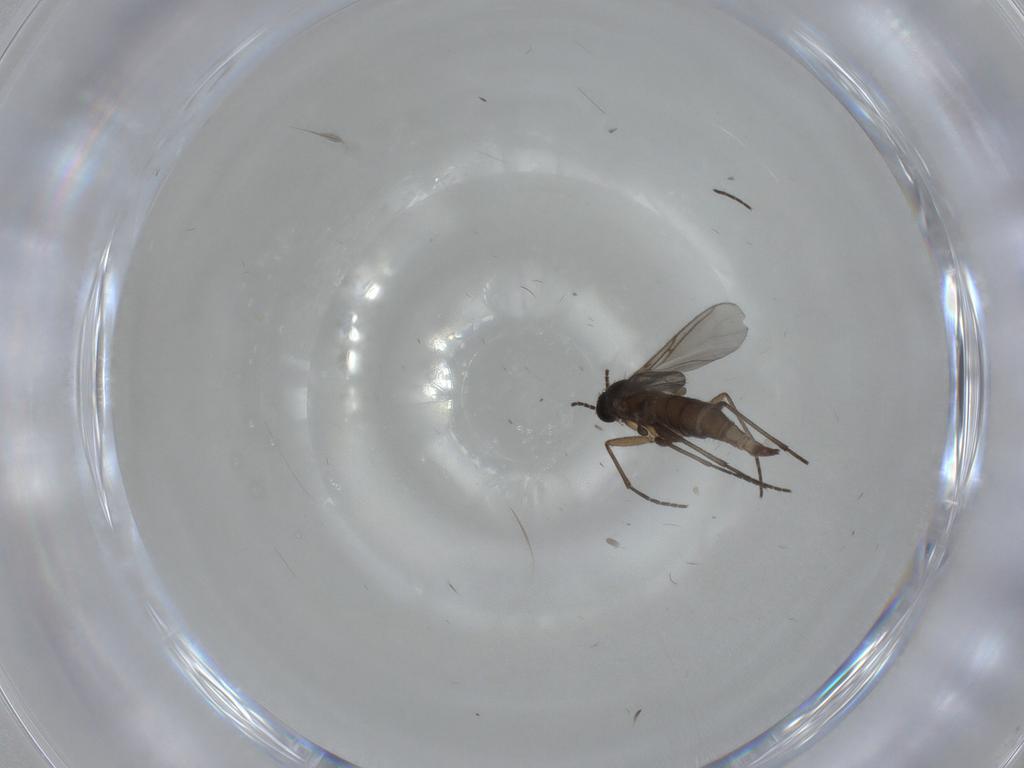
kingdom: Animalia
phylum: Arthropoda
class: Insecta
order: Diptera
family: Sciaridae
